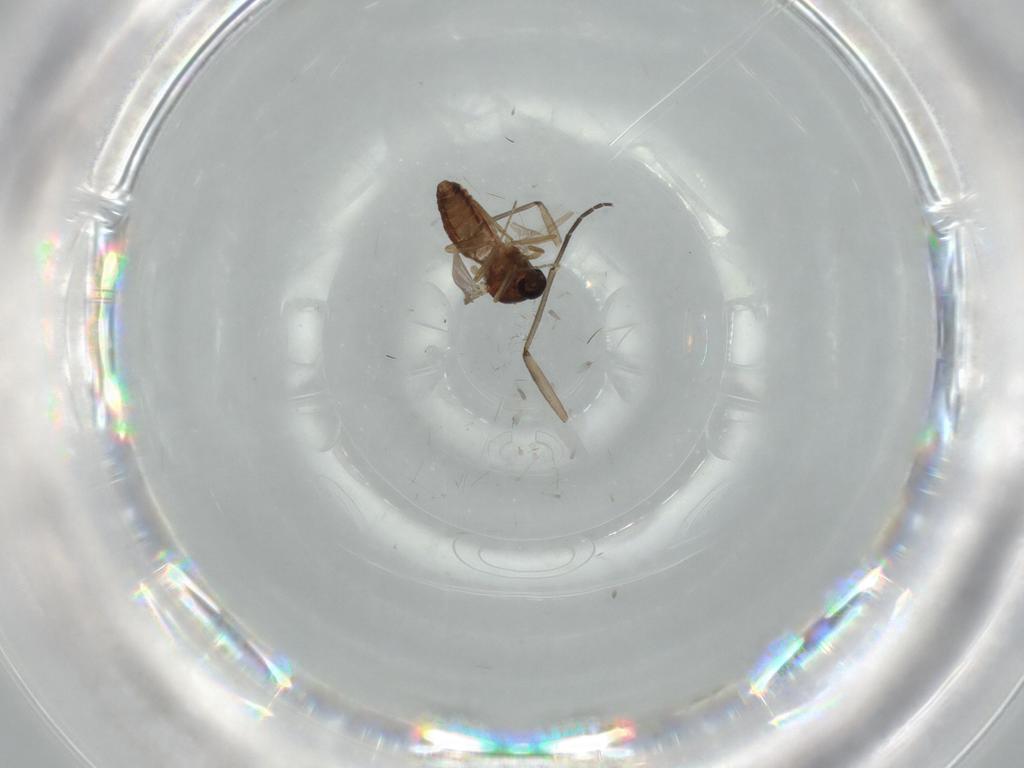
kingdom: Animalia
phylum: Arthropoda
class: Insecta
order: Diptera
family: Ceratopogonidae
